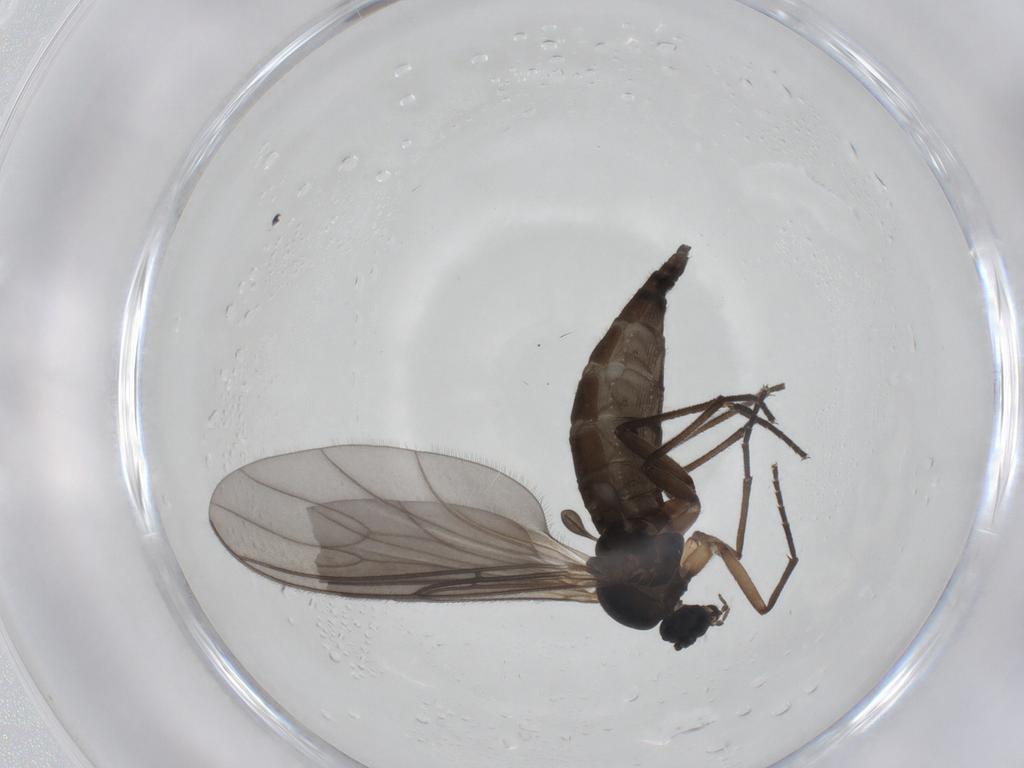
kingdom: Animalia
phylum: Arthropoda
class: Insecta
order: Diptera
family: Sciaridae
